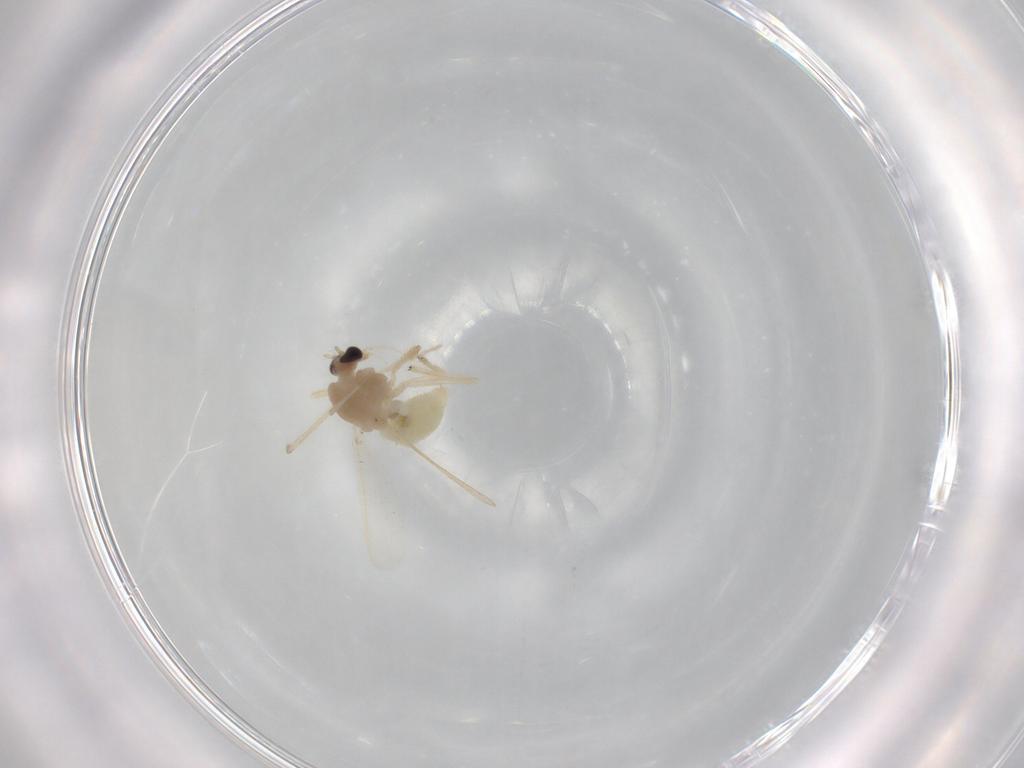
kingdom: Animalia
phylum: Arthropoda
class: Insecta
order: Diptera
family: Chironomidae
